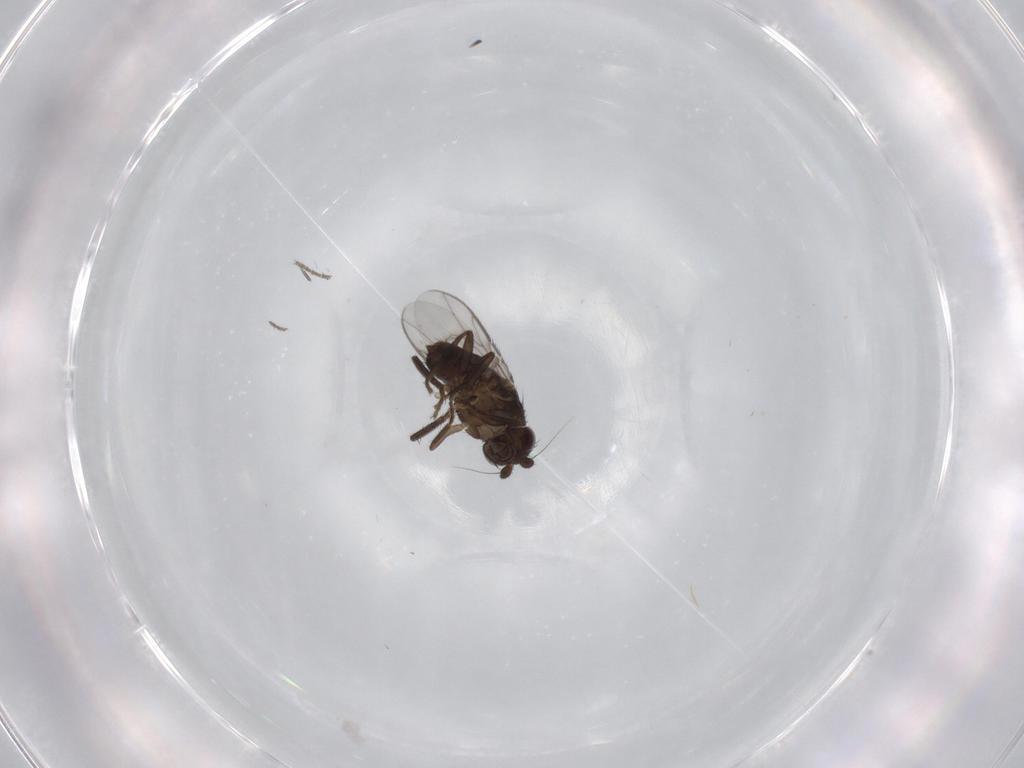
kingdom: Animalia
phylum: Arthropoda
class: Insecta
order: Diptera
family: Sphaeroceridae
